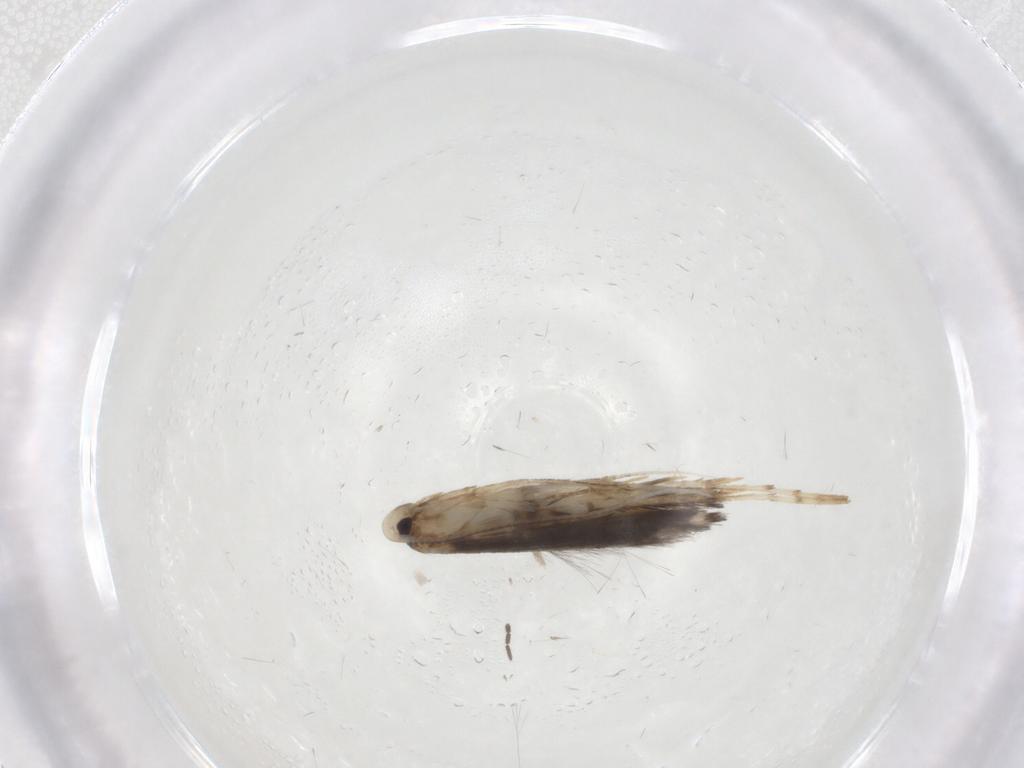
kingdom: Animalia
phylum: Arthropoda
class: Insecta
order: Lepidoptera
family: Gracillariidae
